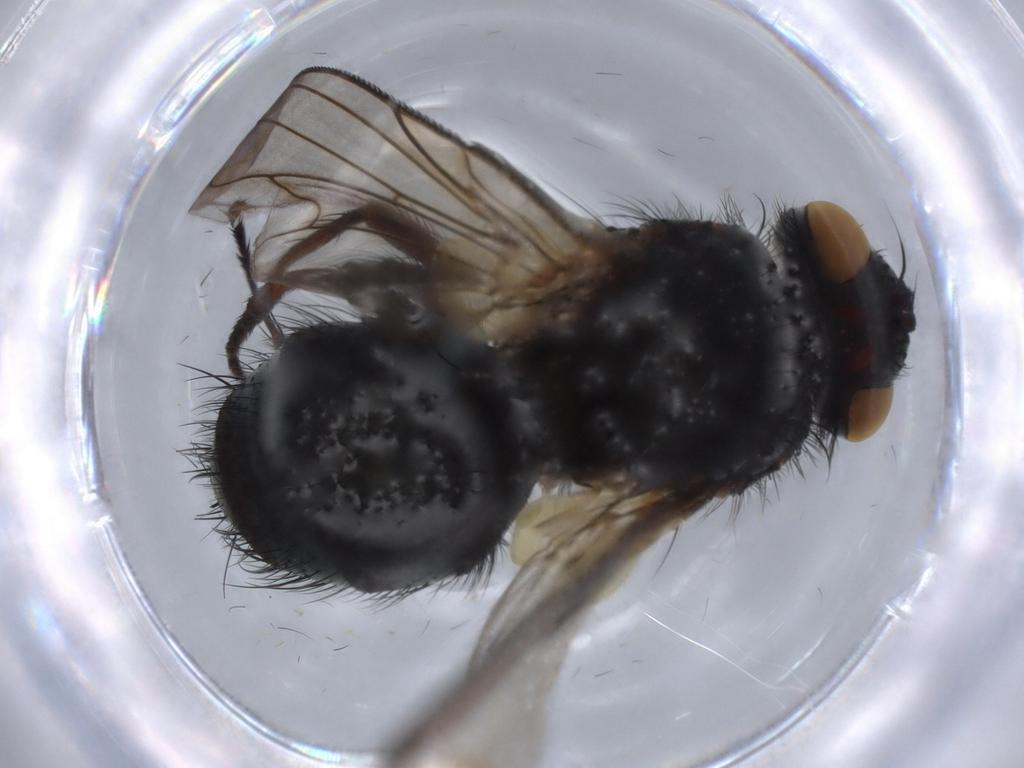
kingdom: Animalia
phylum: Arthropoda
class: Insecta
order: Diptera
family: Tachinidae
